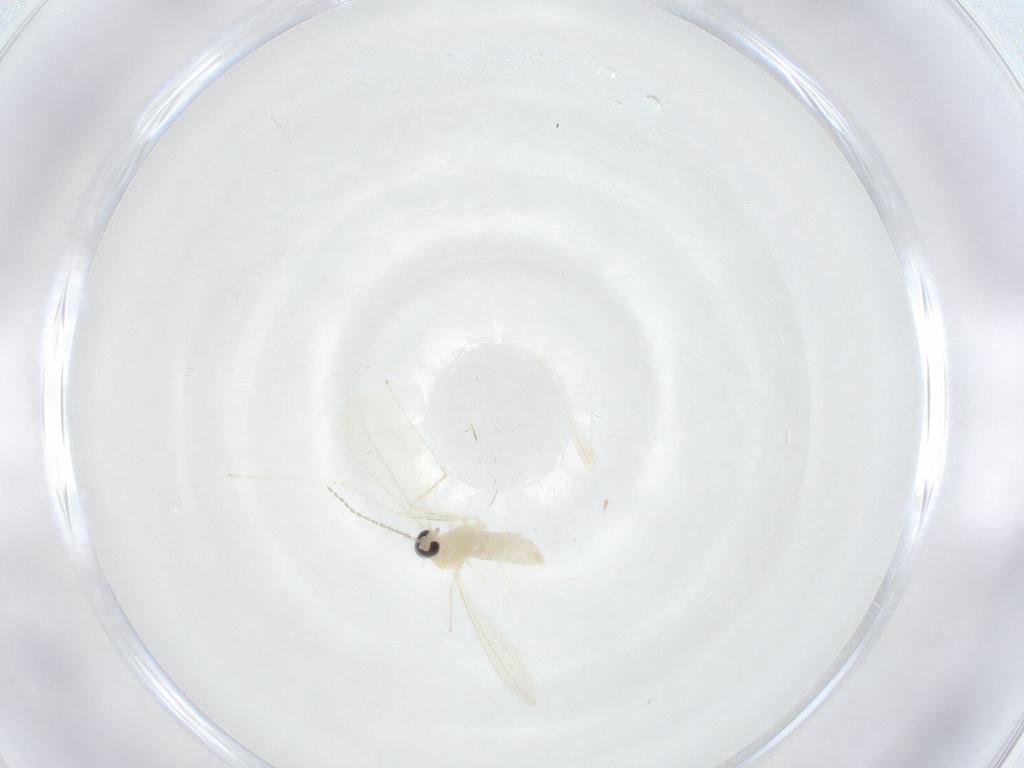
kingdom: Animalia
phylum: Arthropoda
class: Insecta
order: Diptera
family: Cecidomyiidae
